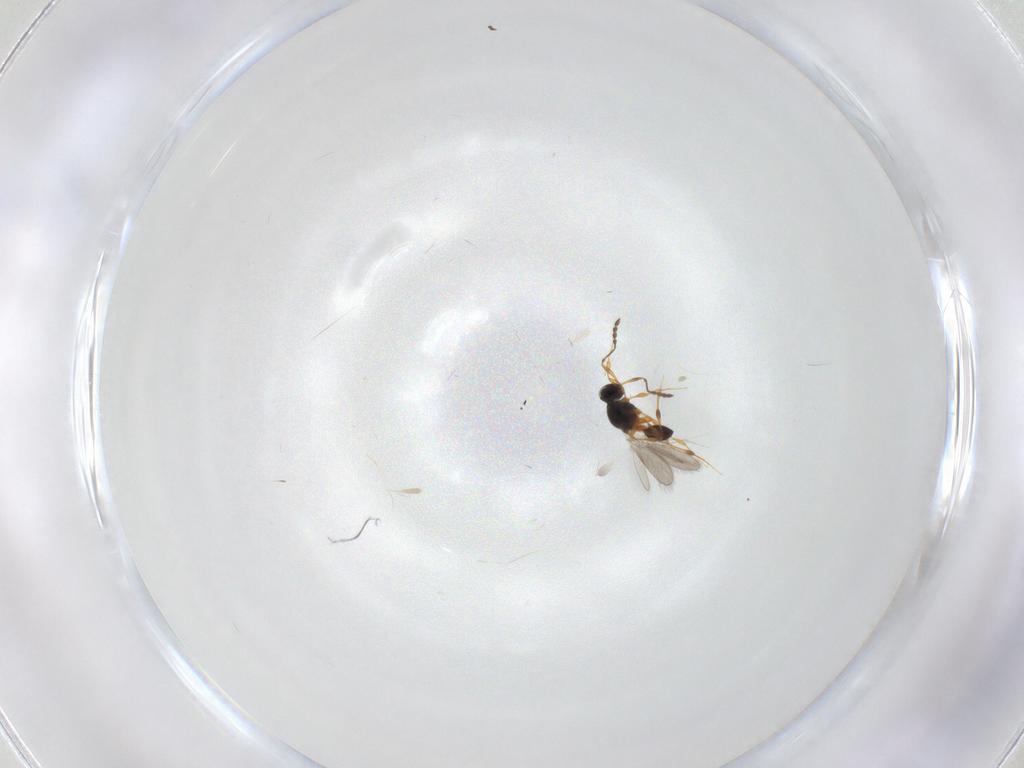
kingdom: Animalia
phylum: Arthropoda
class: Insecta
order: Hymenoptera
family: Platygastridae
